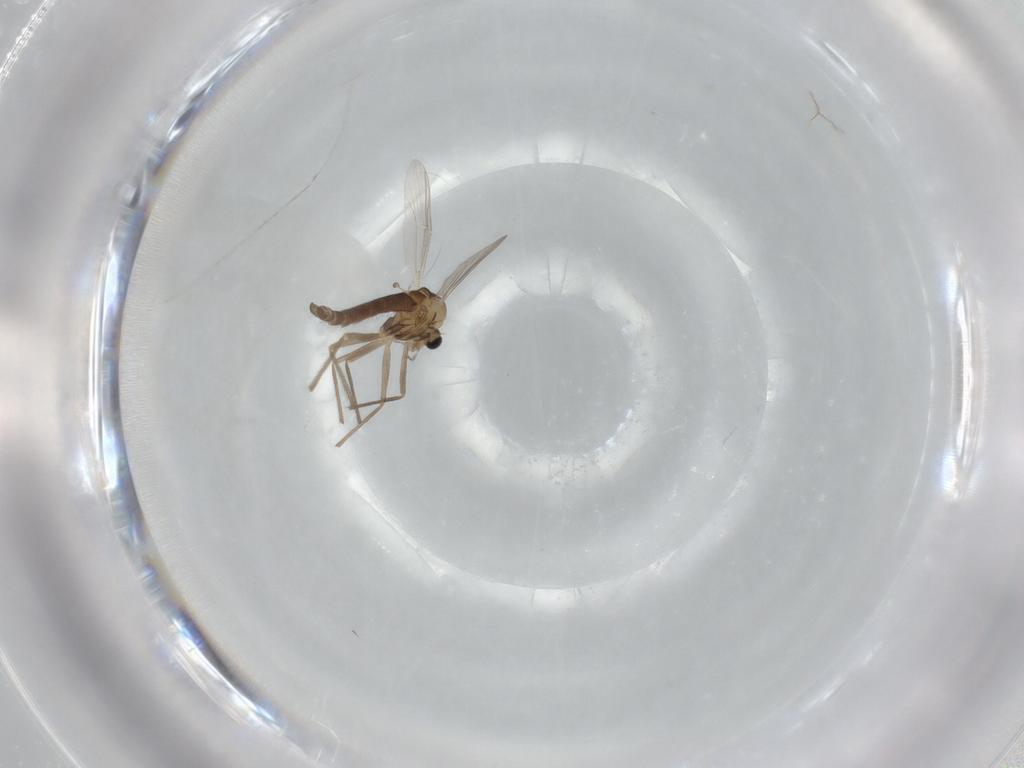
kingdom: Animalia
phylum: Arthropoda
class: Insecta
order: Diptera
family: Chironomidae
